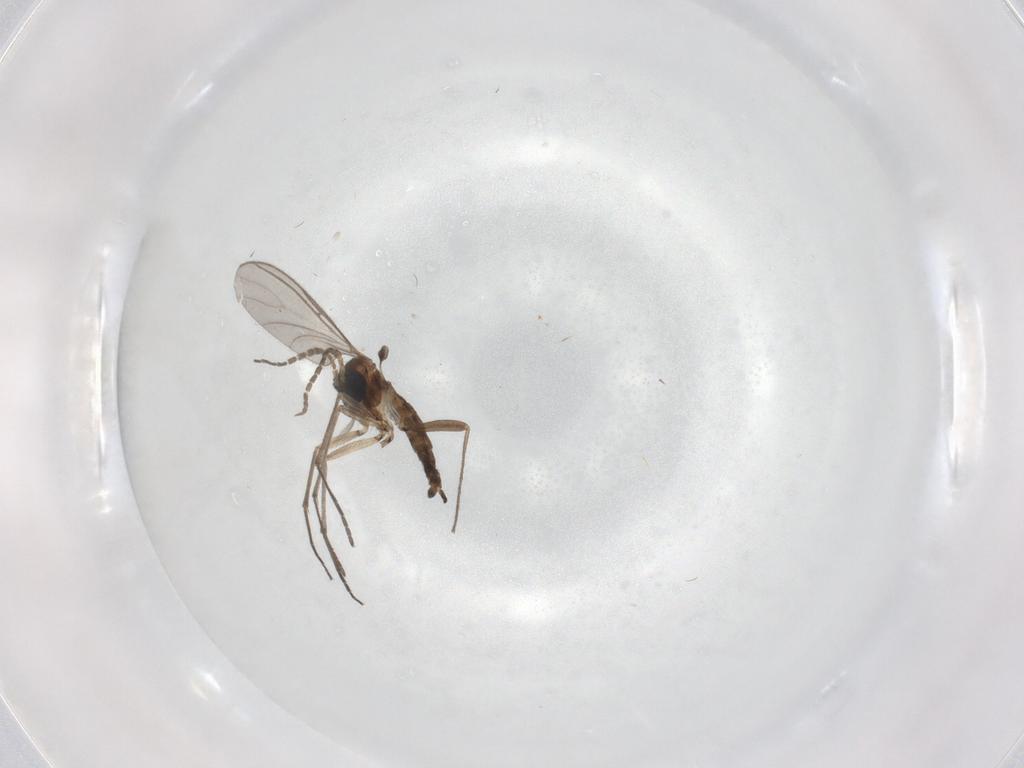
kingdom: Animalia
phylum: Arthropoda
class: Insecta
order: Diptera
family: Sciaridae
